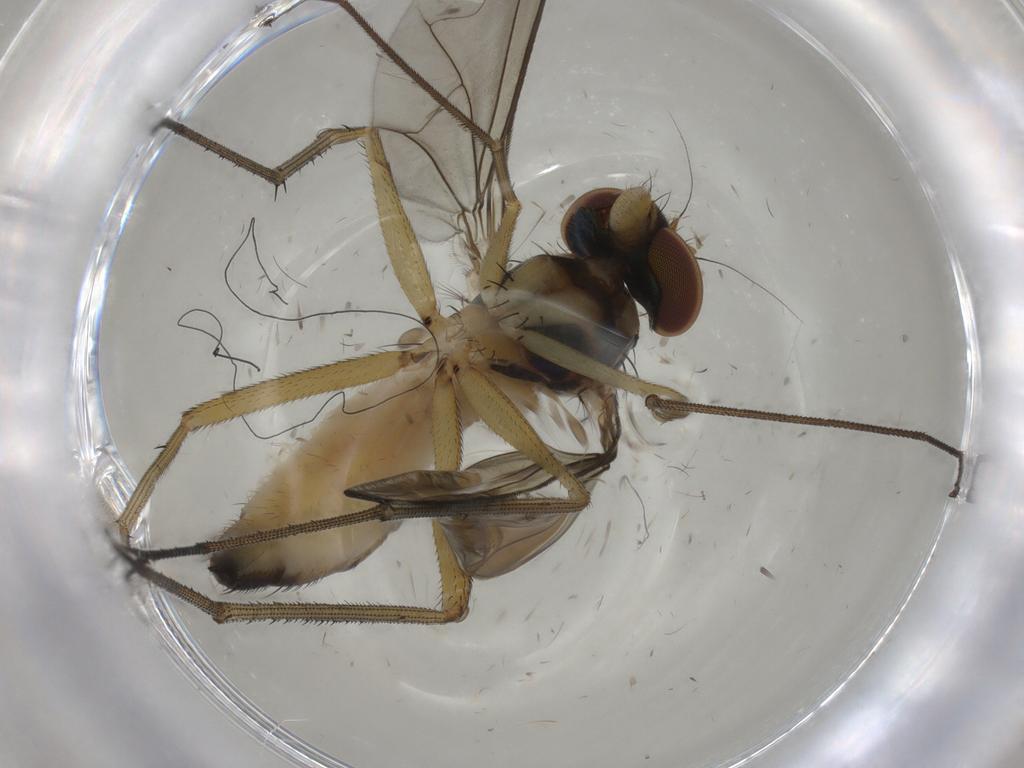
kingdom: Animalia
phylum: Arthropoda
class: Insecta
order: Diptera
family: Dolichopodidae
